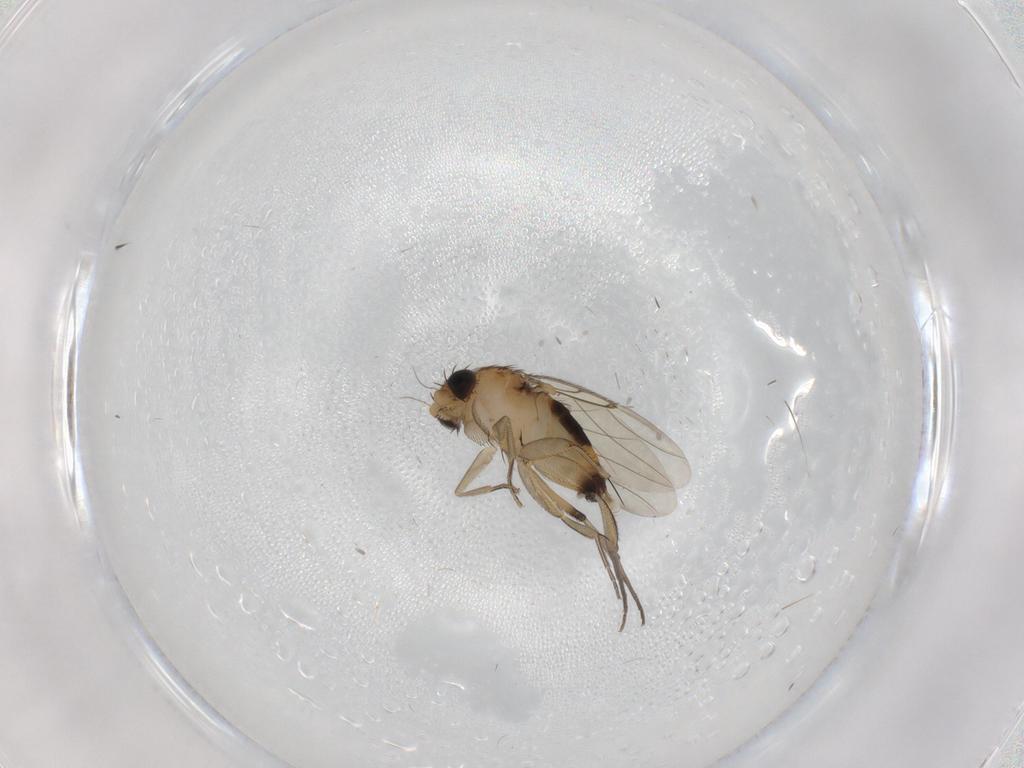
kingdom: Animalia
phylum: Arthropoda
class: Insecta
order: Diptera
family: Phoridae
